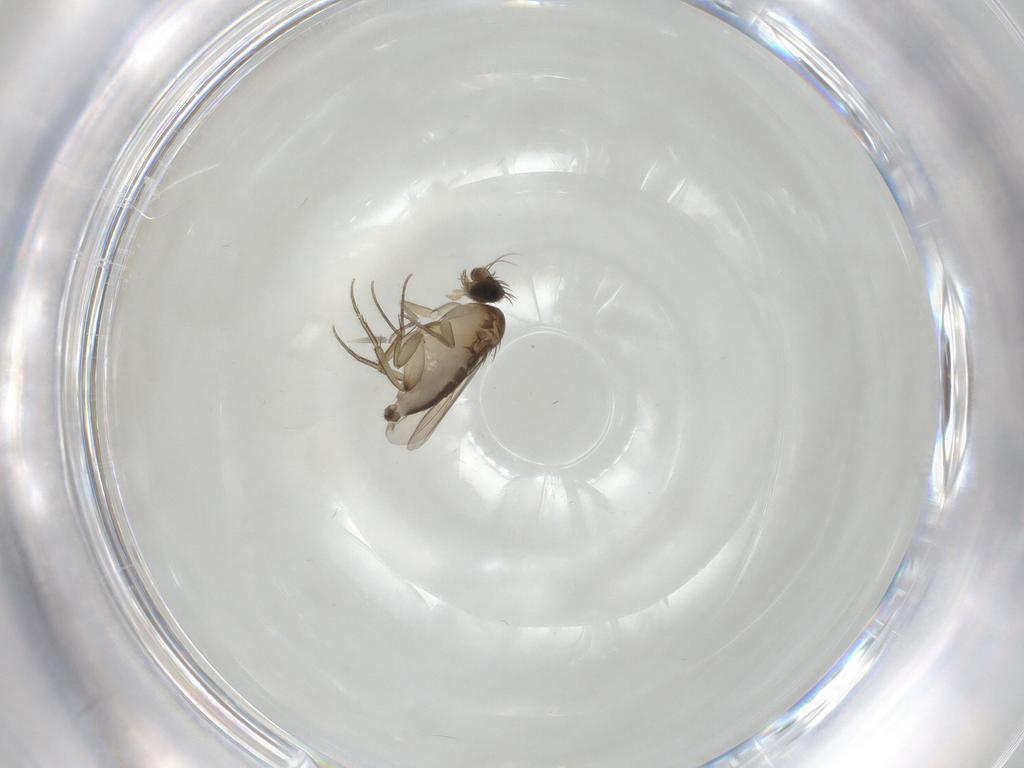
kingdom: Animalia
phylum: Arthropoda
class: Insecta
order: Diptera
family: Phoridae
